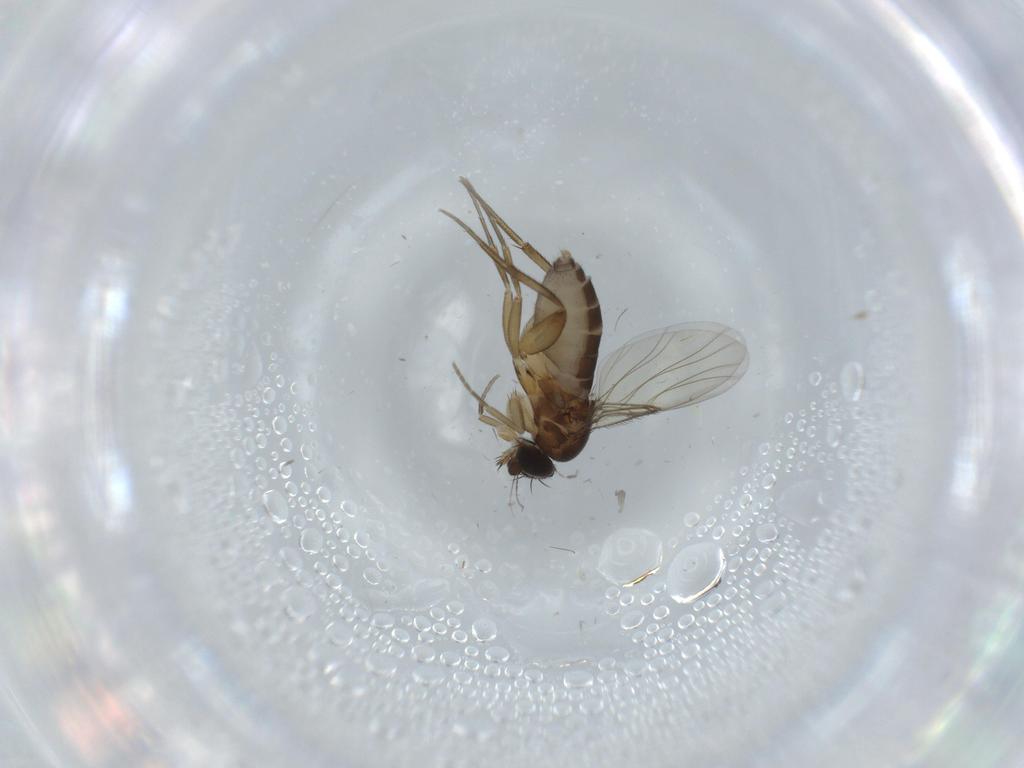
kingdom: Animalia
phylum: Arthropoda
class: Insecta
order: Diptera
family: Phoridae
